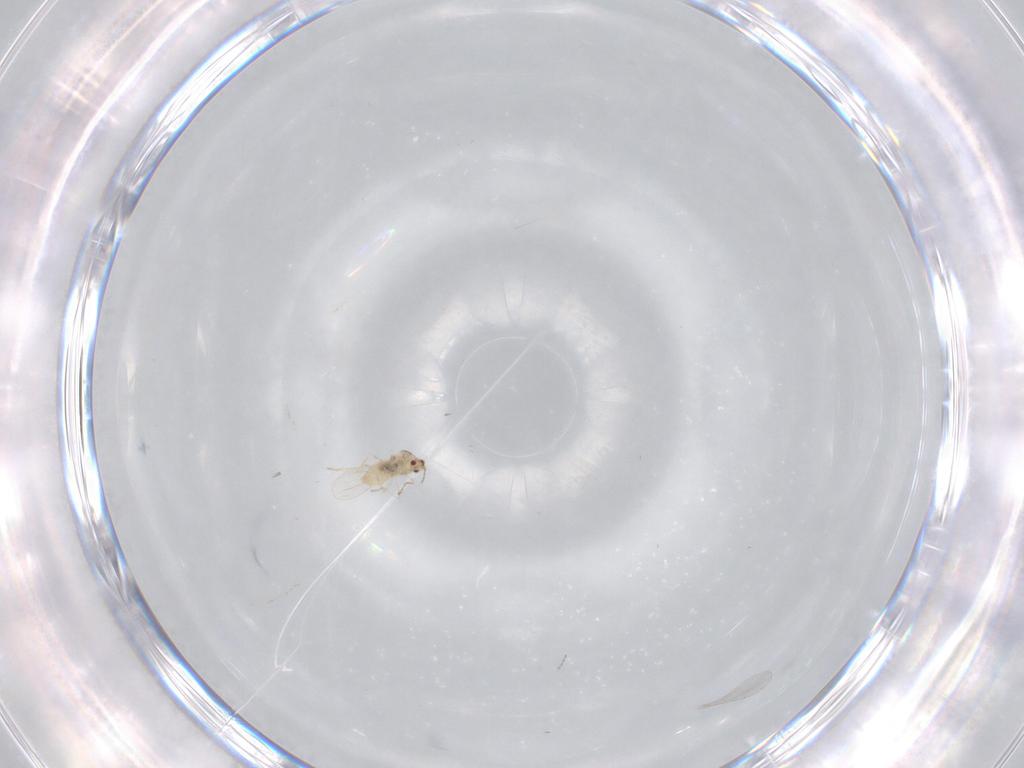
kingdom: Animalia
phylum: Arthropoda
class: Insecta
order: Diptera
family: Cecidomyiidae
